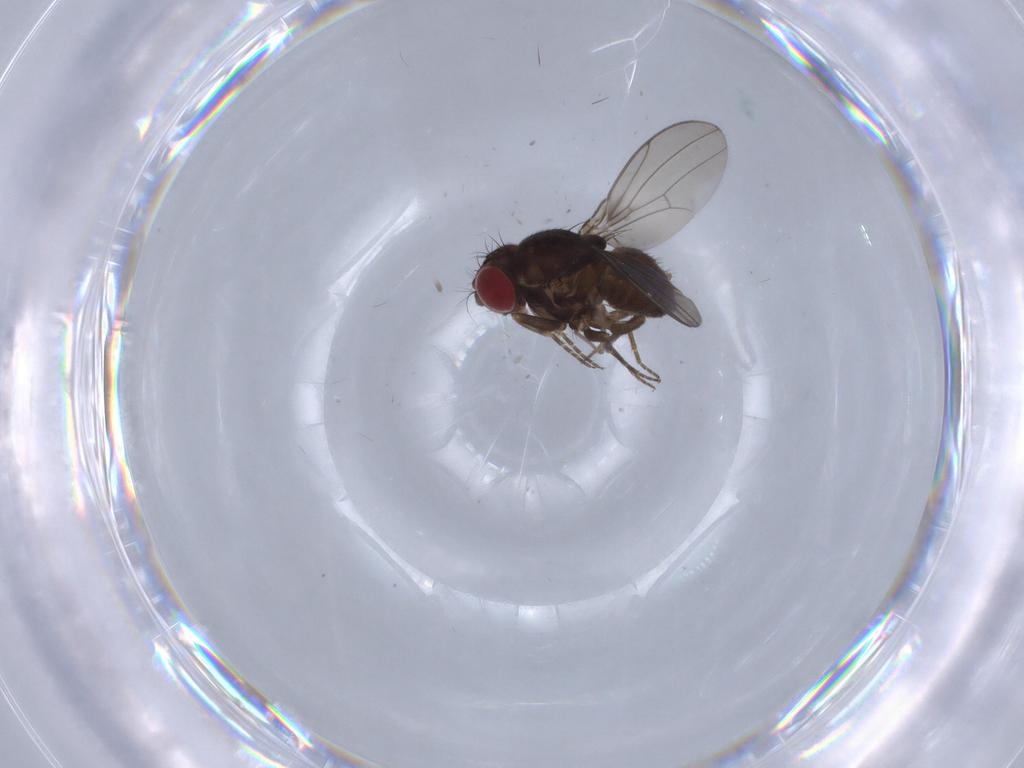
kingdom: Animalia
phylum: Arthropoda
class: Insecta
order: Diptera
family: Ephydridae
